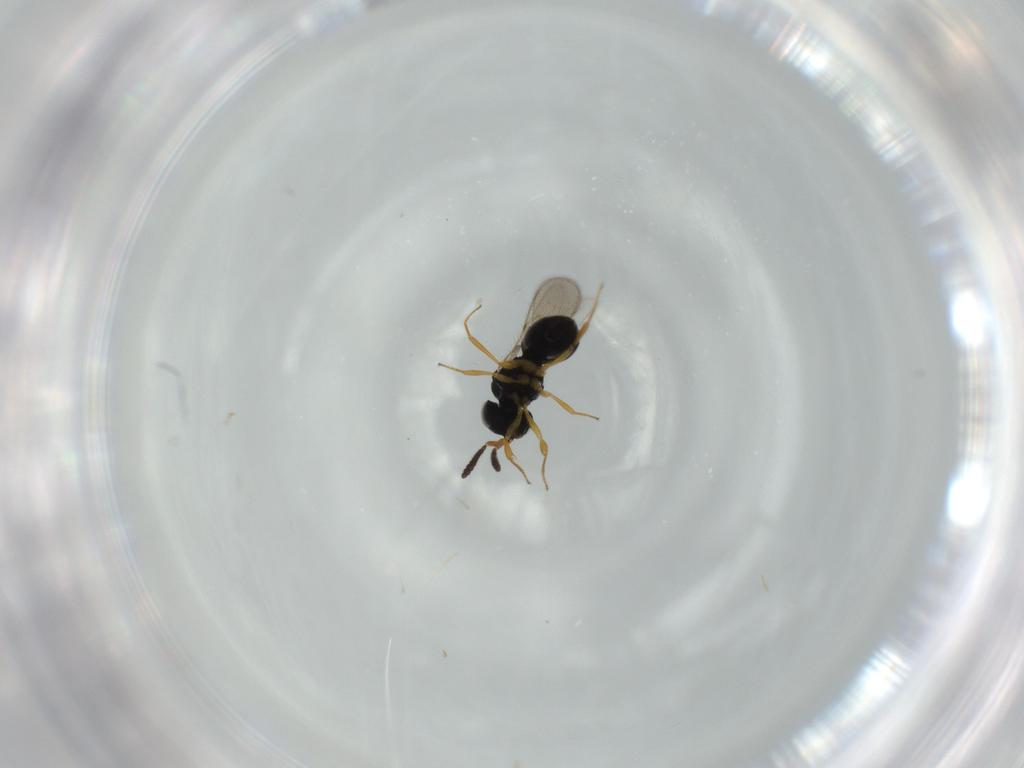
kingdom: Animalia
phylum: Arthropoda
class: Insecta
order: Hymenoptera
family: Scelionidae
